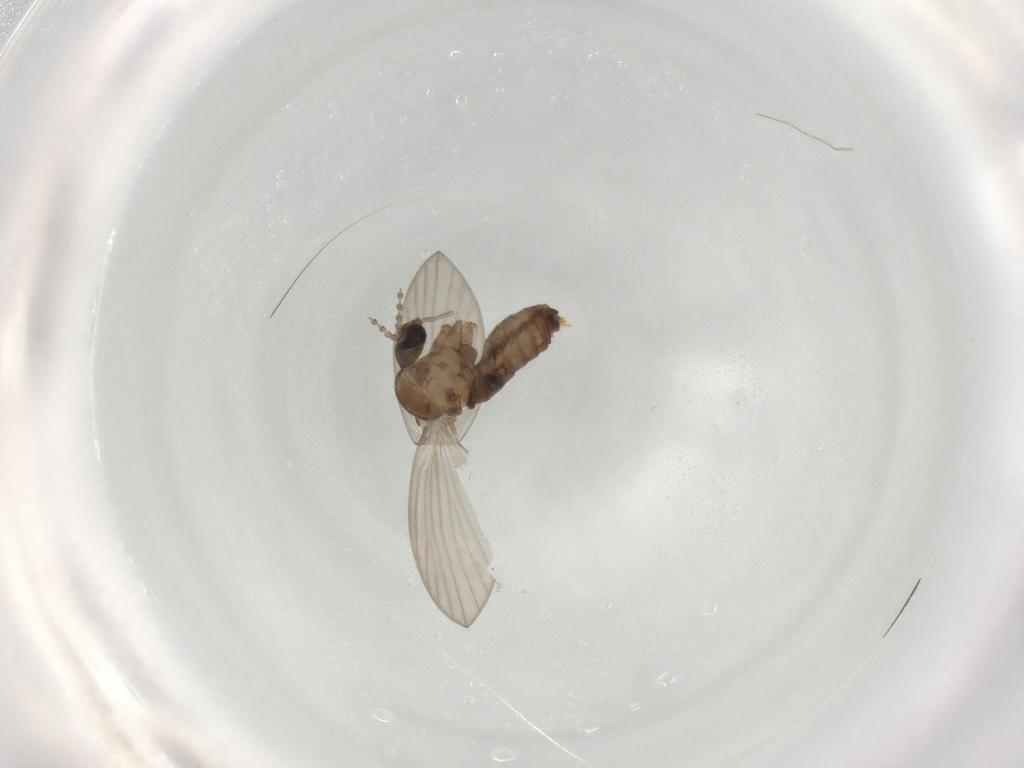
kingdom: Animalia
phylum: Arthropoda
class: Insecta
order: Diptera
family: Psychodidae
